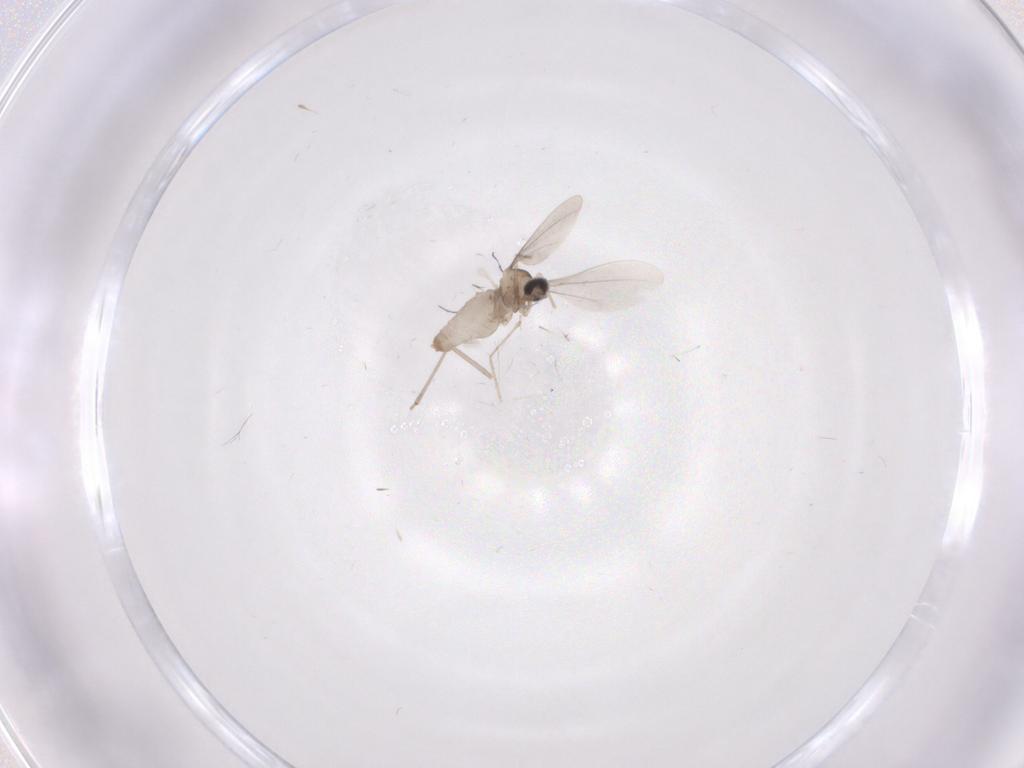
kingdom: Animalia
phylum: Arthropoda
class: Insecta
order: Diptera
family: Cecidomyiidae
